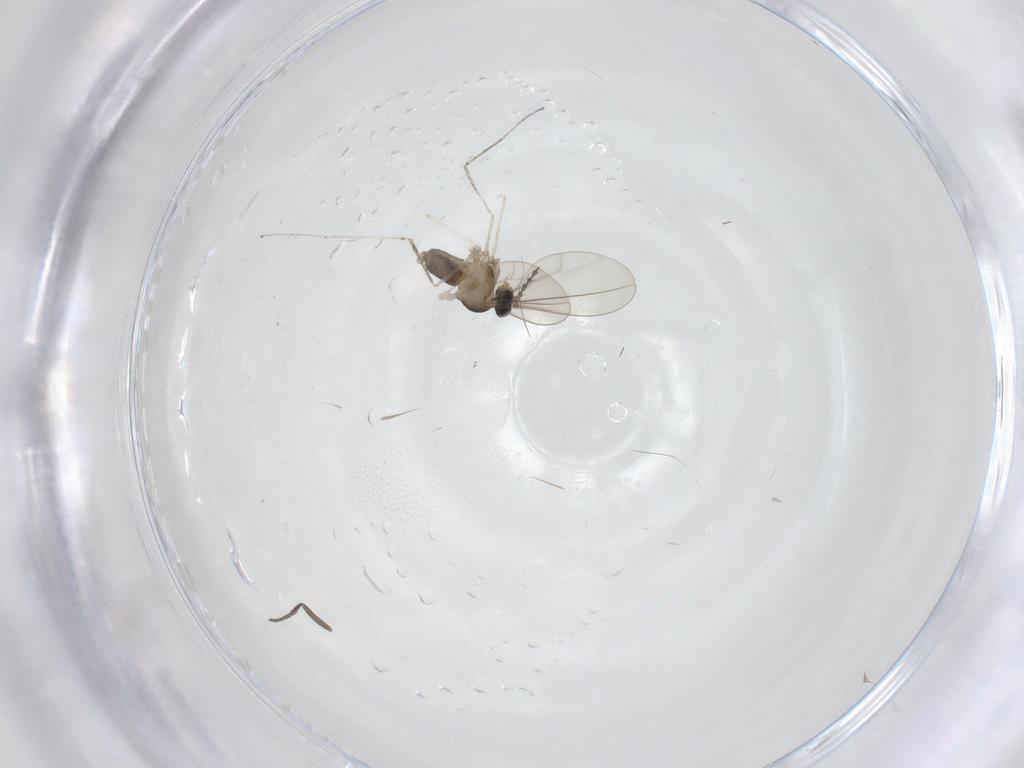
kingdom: Animalia
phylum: Arthropoda
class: Insecta
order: Diptera
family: Cecidomyiidae
